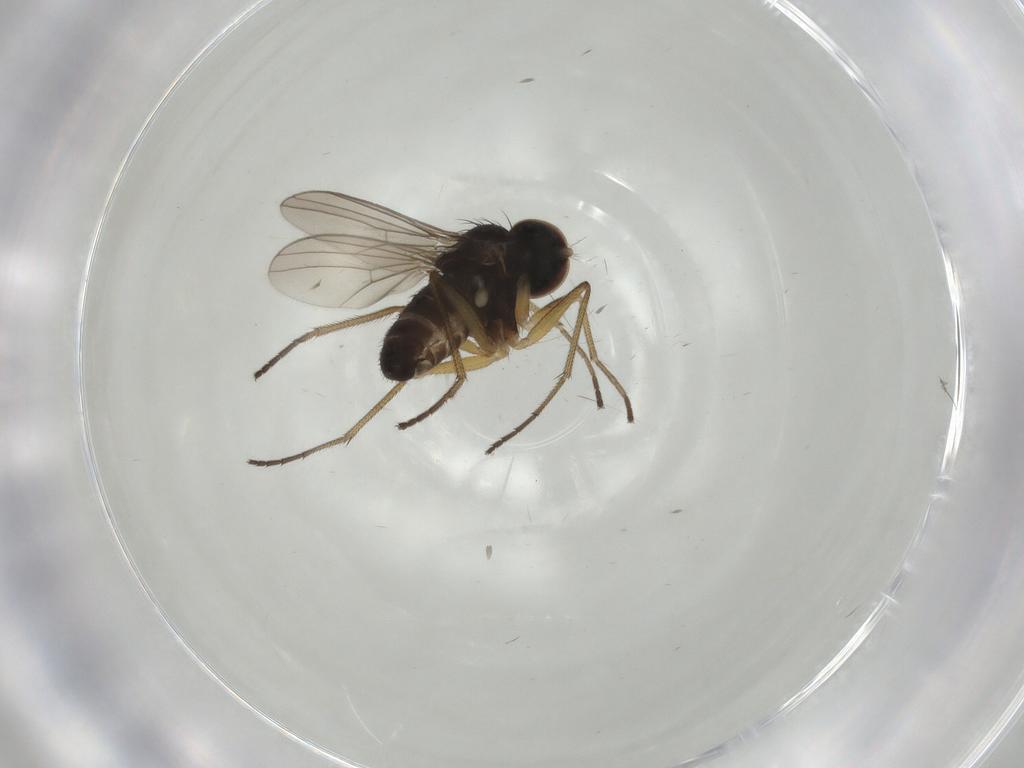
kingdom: Animalia
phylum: Arthropoda
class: Insecta
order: Diptera
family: Dolichopodidae
